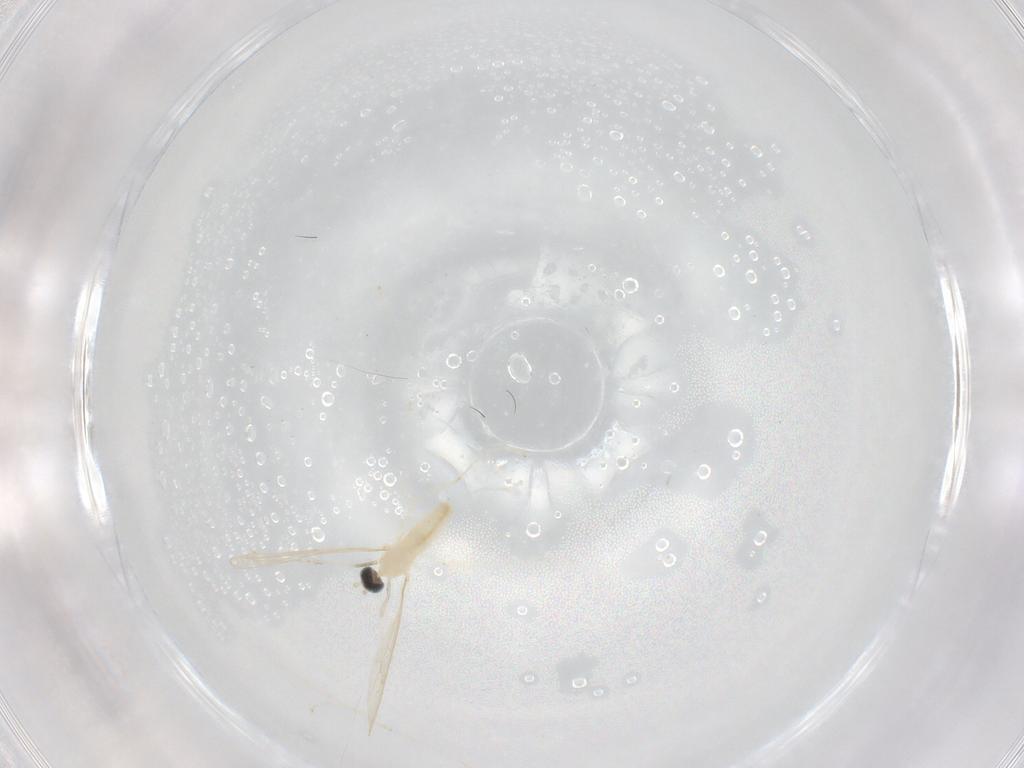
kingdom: Animalia
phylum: Arthropoda
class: Insecta
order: Diptera
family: Cecidomyiidae
